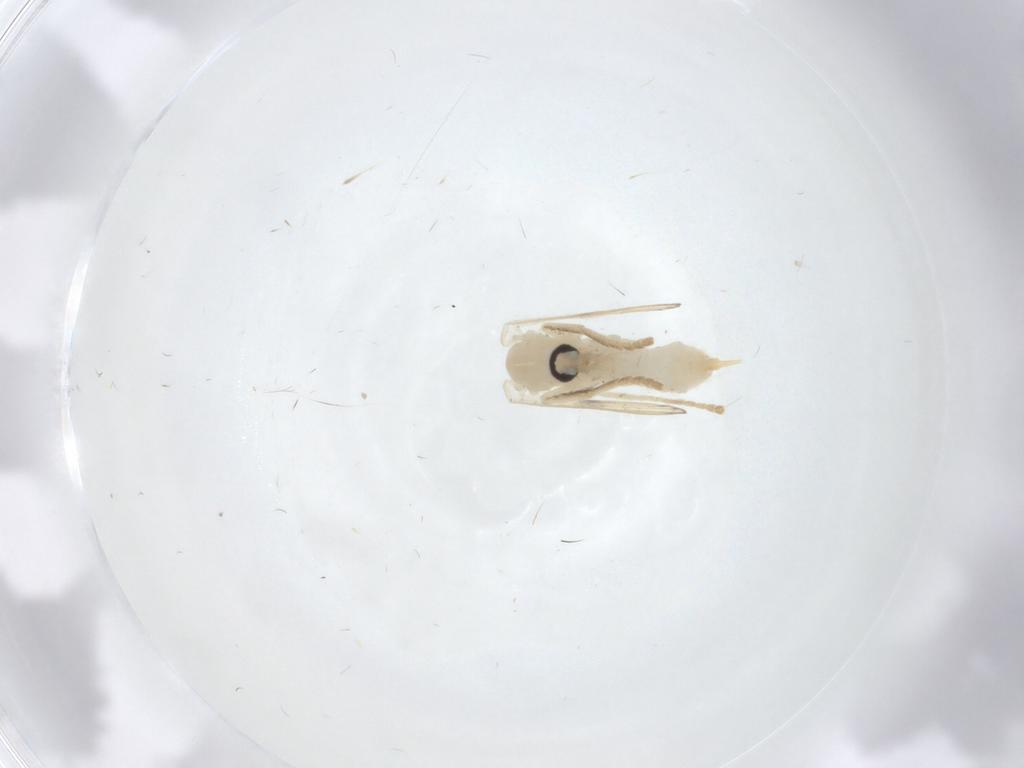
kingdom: Animalia
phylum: Arthropoda
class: Insecta
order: Diptera
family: Psychodidae
